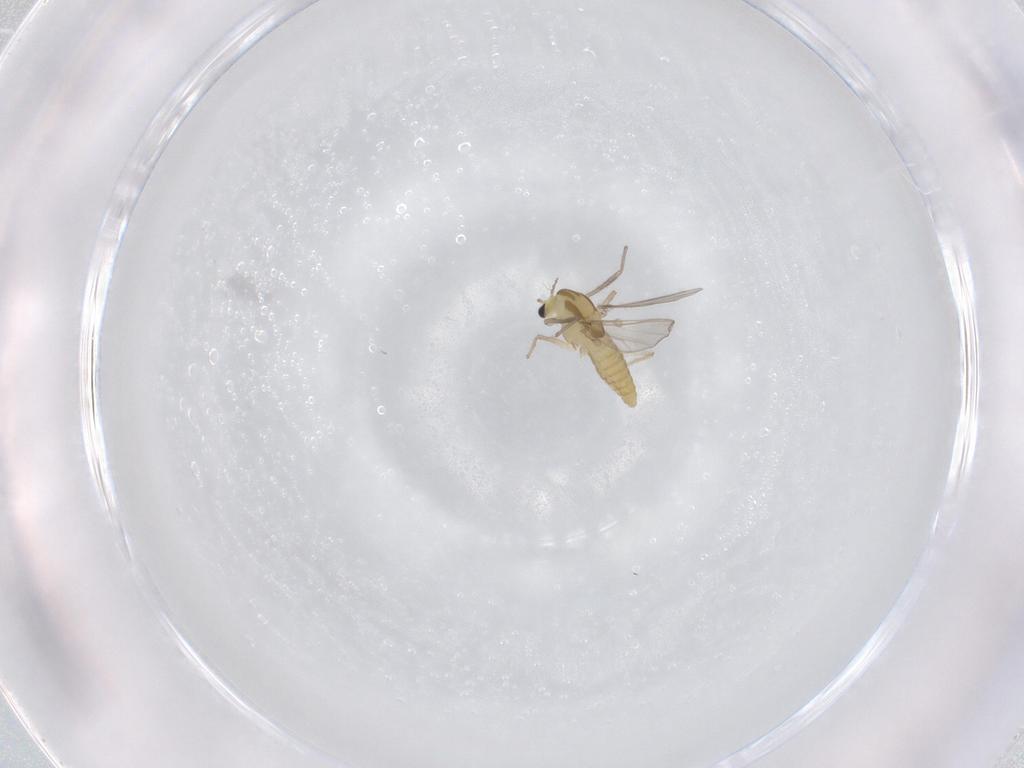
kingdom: Animalia
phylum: Arthropoda
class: Insecta
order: Diptera
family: Chironomidae
